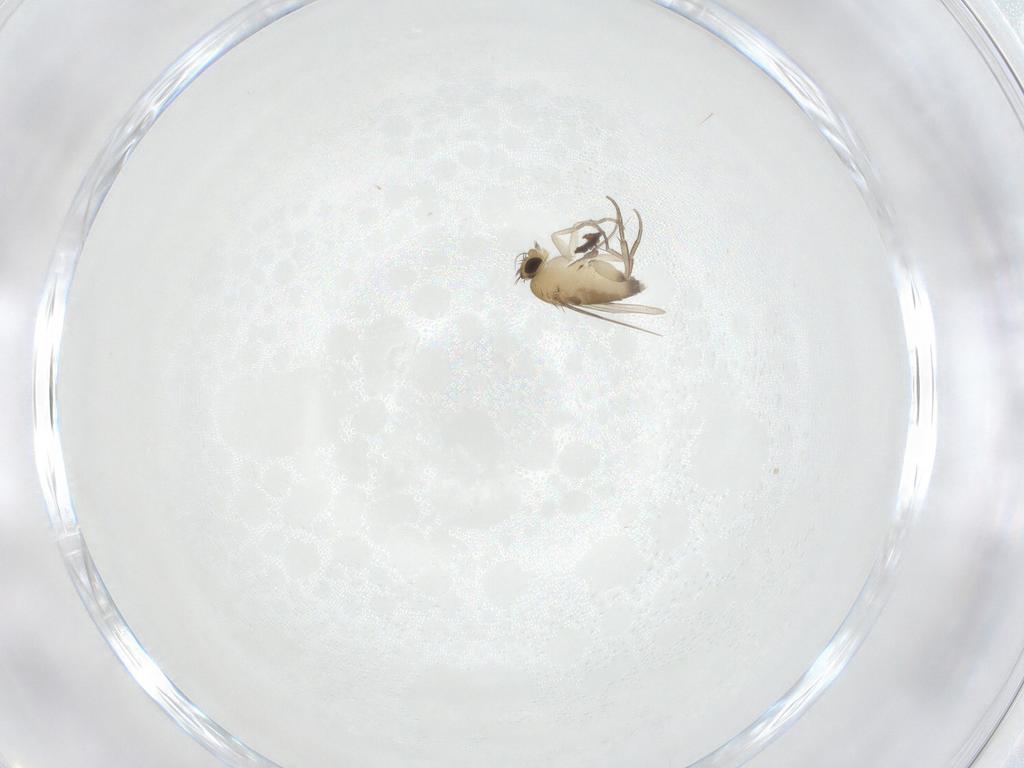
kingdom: Animalia
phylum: Arthropoda
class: Insecta
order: Diptera
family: Phoridae
